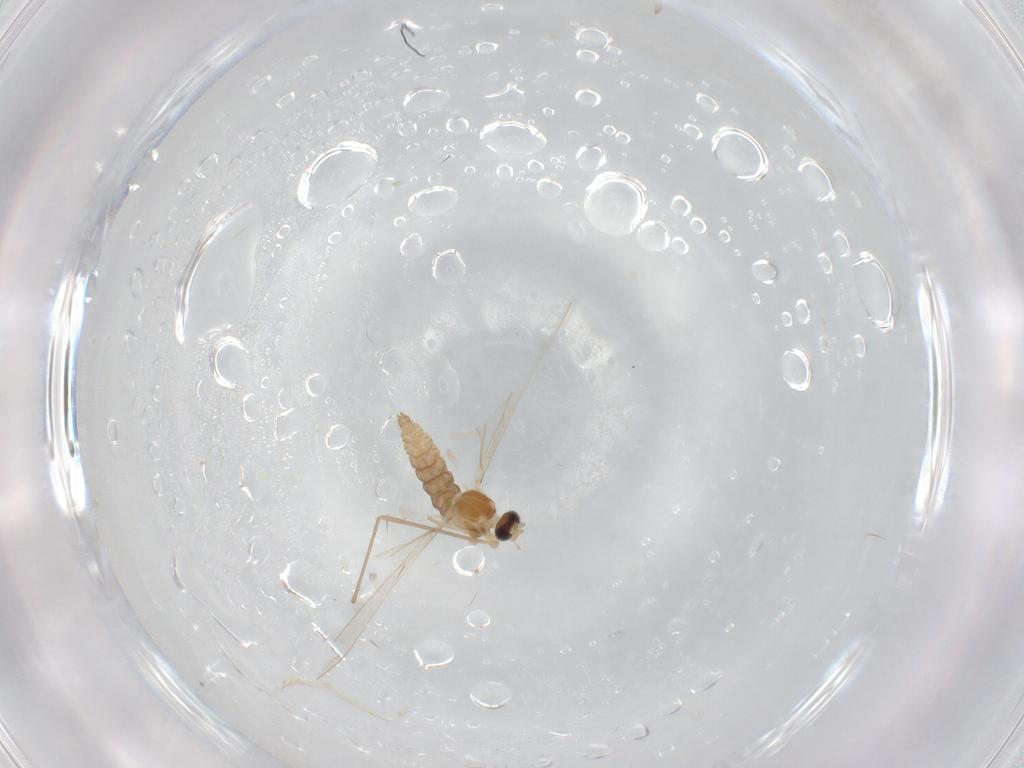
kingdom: Animalia
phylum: Arthropoda
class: Insecta
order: Diptera
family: Cecidomyiidae
